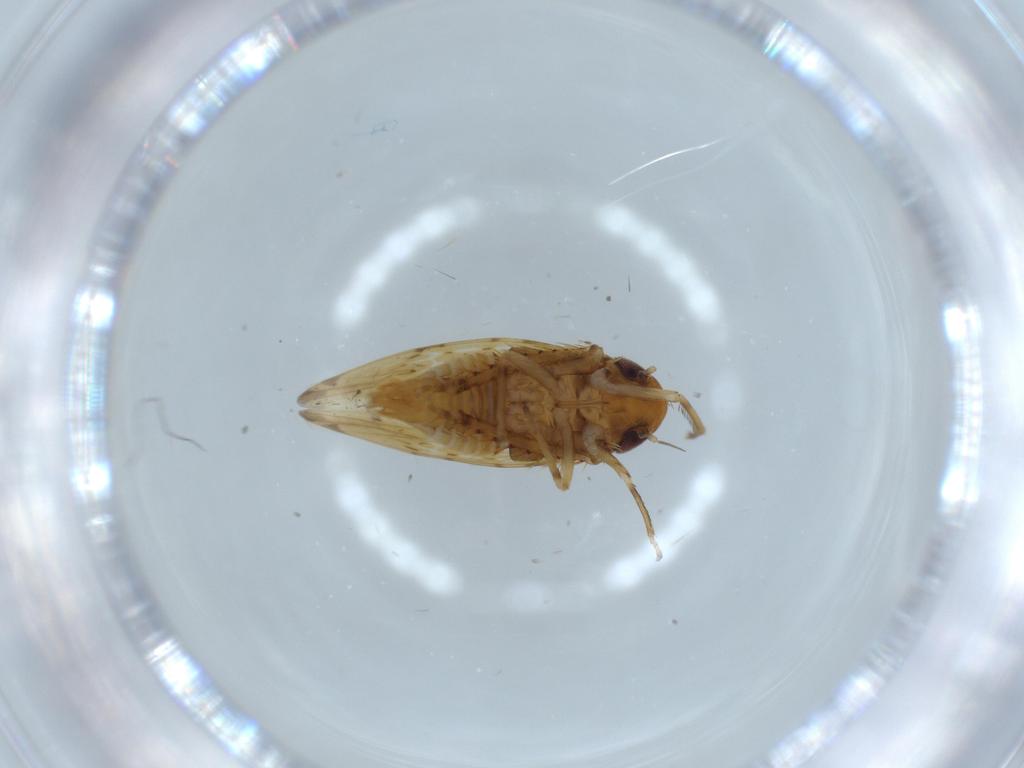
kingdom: Animalia
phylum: Arthropoda
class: Insecta
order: Hemiptera
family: Cicadellidae
